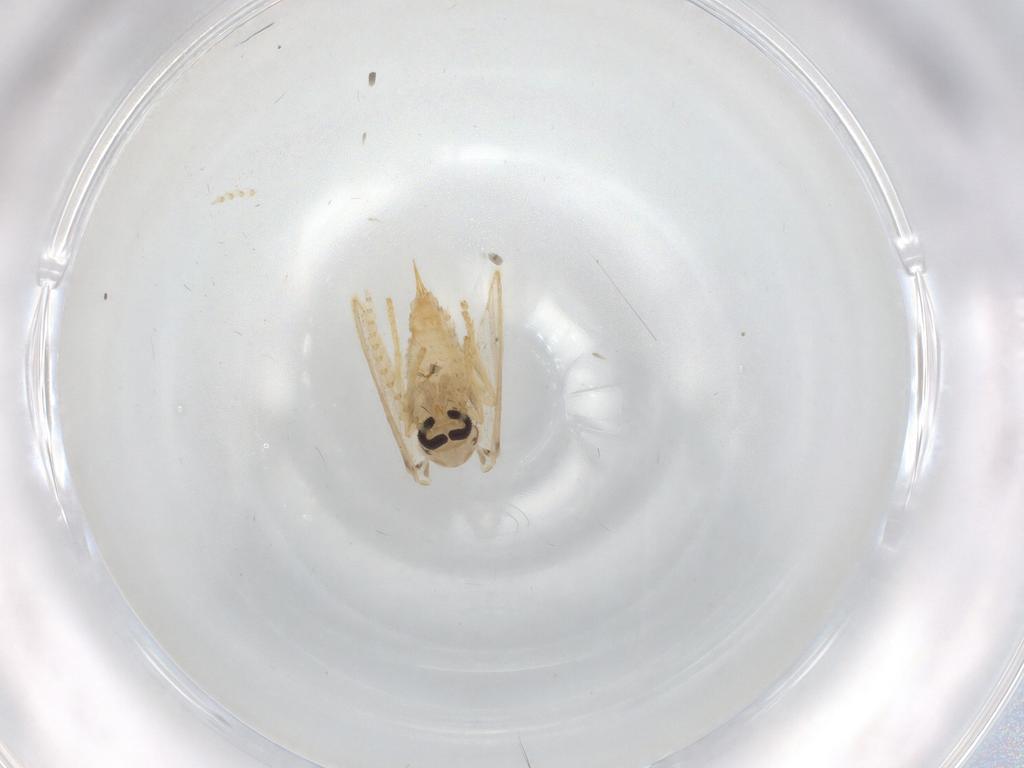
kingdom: Animalia
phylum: Arthropoda
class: Insecta
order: Diptera
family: Psychodidae
